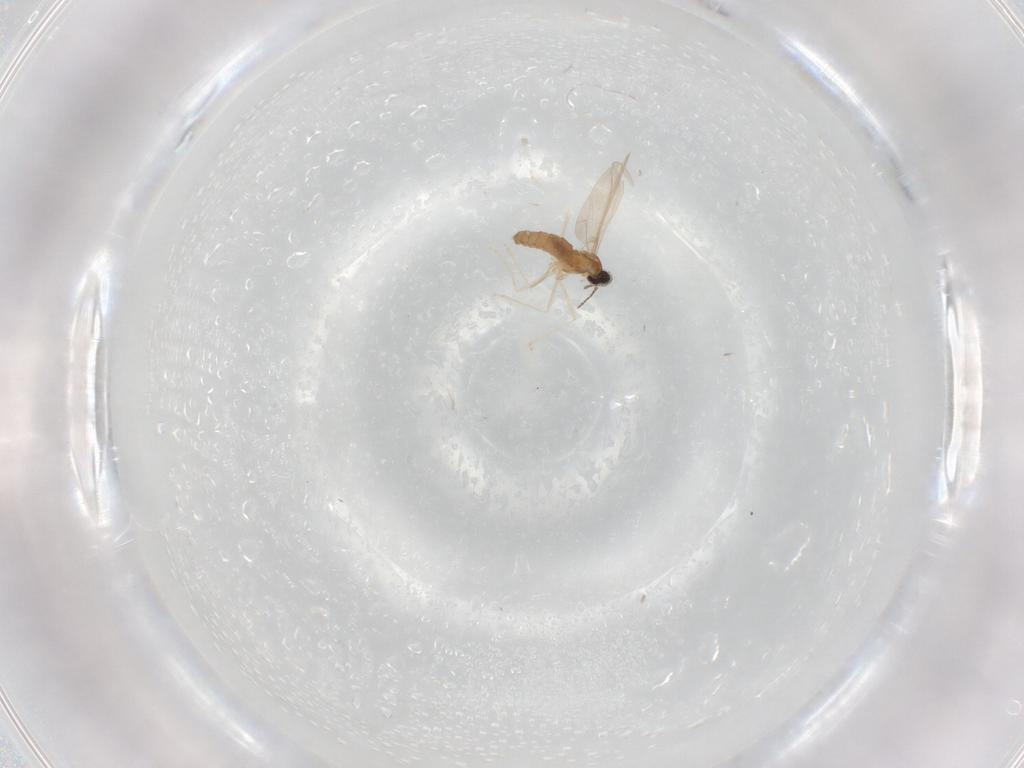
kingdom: Animalia
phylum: Arthropoda
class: Insecta
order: Diptera
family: Cecidomyiidae
